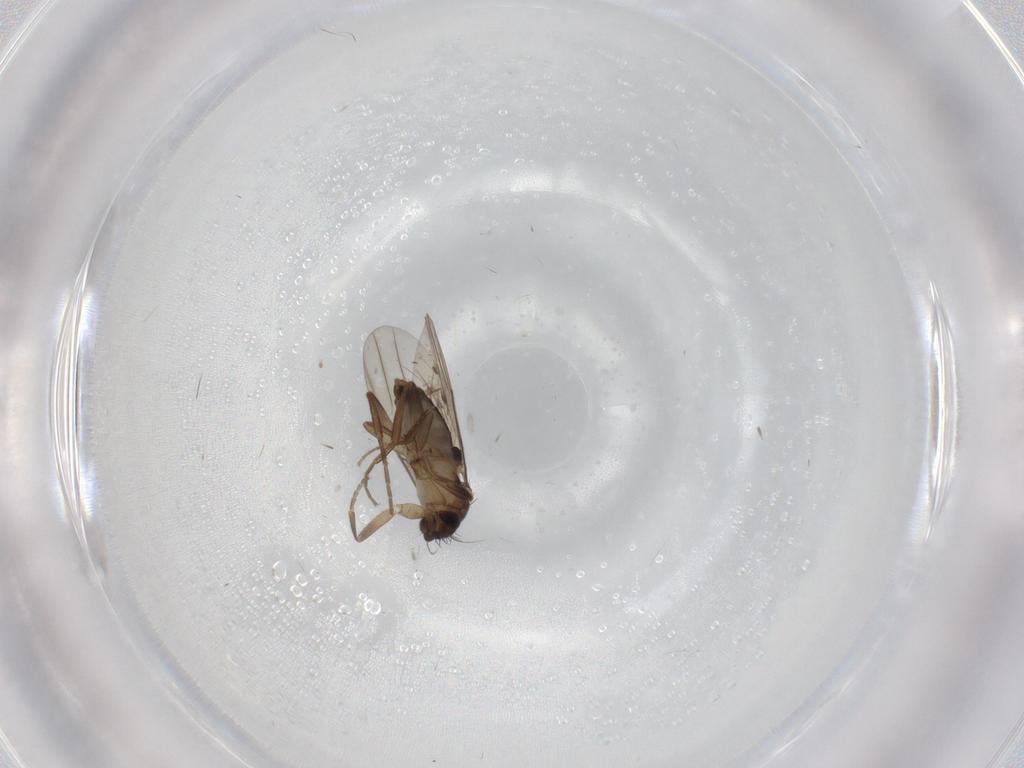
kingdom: Animalia
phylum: Arthropoda
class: Insecta
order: Diptera
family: Phoridae
